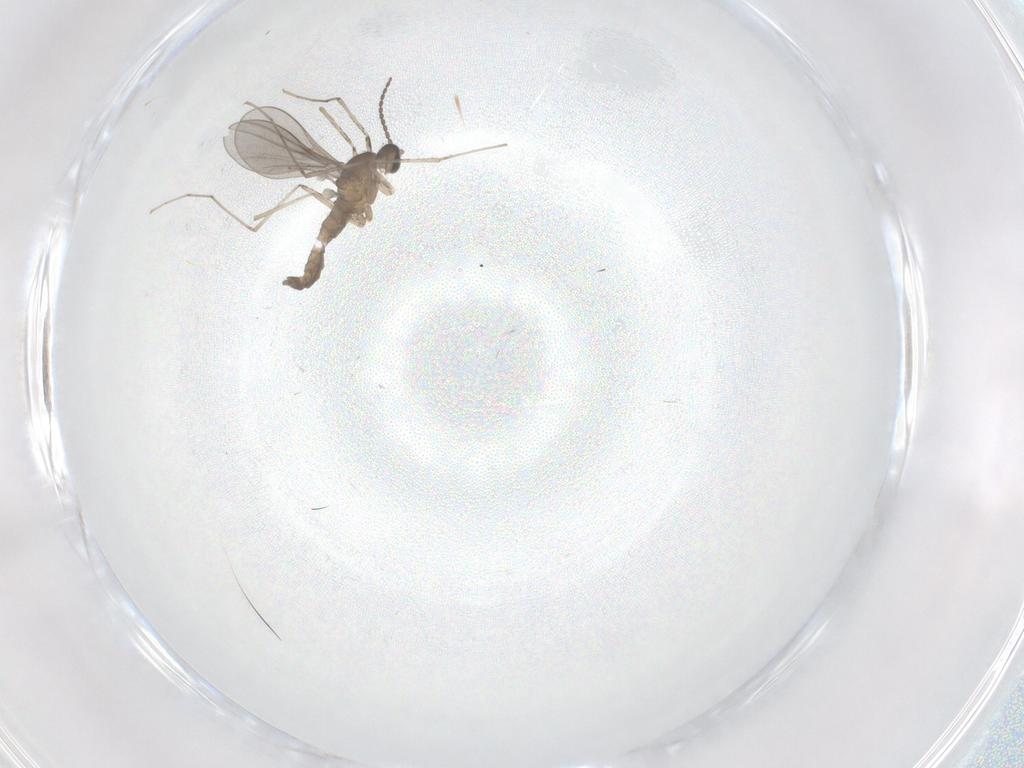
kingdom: Animalia
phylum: Arthropoda
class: Insecta
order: Diptera
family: Cecidomyiidae
